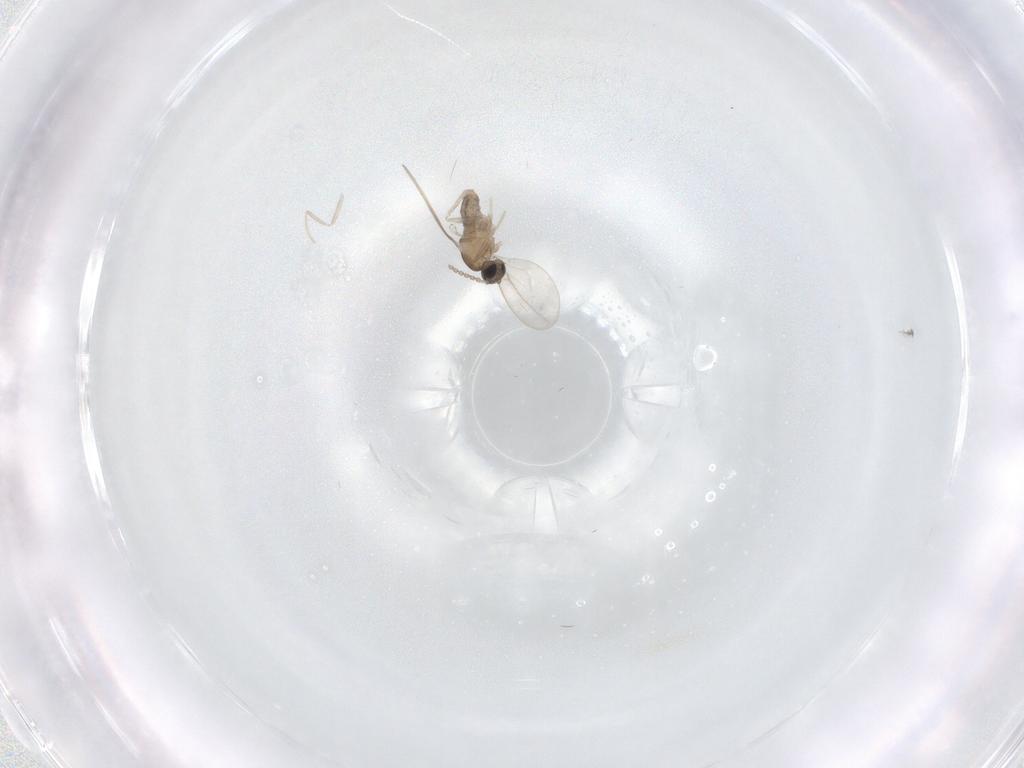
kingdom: Animalia
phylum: Arthropoda
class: Insecta
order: Diptera
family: Cecidomyiidae
